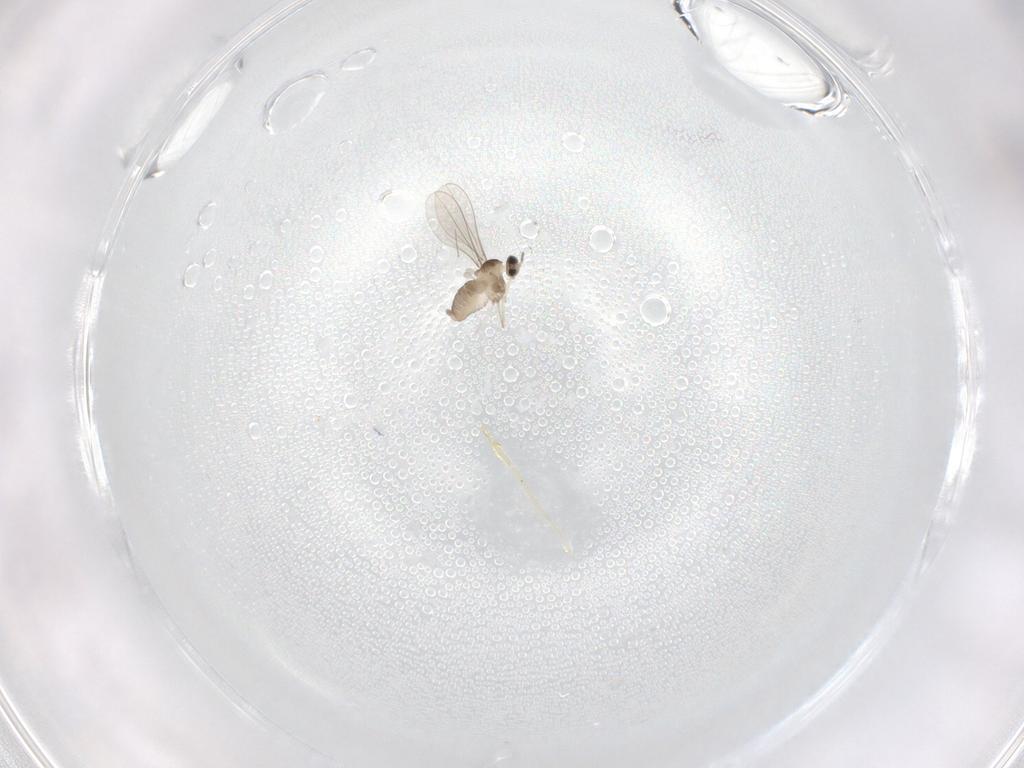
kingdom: Animalia
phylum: Arthropoda
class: Insecta
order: Diptera
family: Cecidomyiidae
